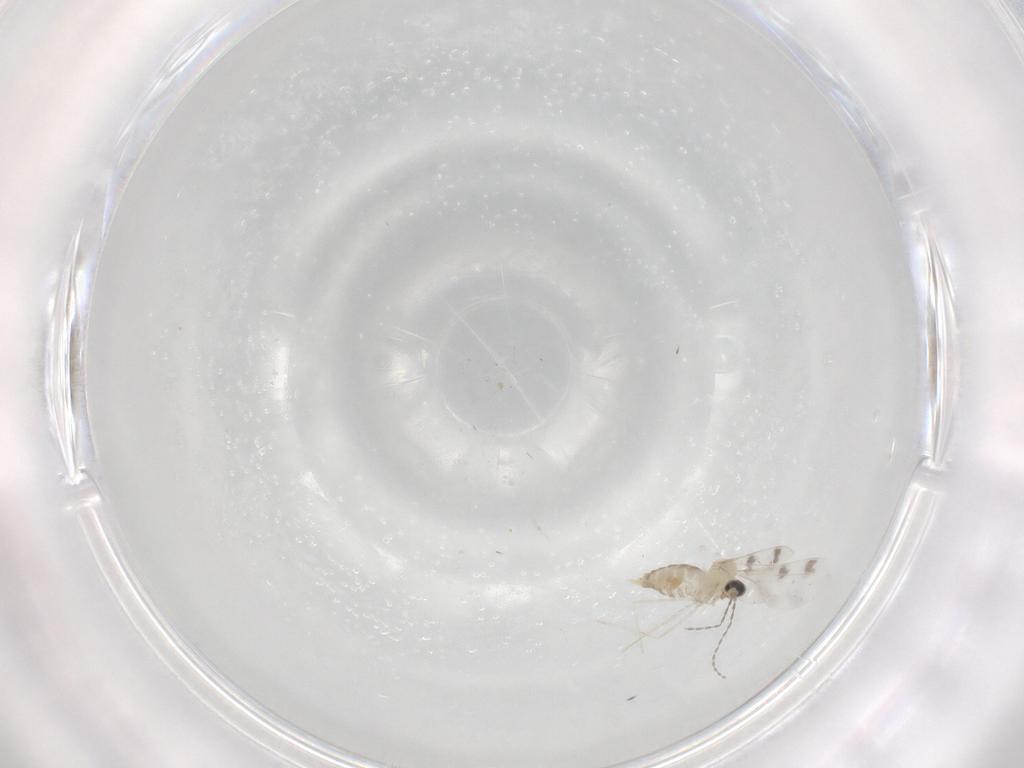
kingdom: Animalia
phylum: Arthropoda
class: Insecta
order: Diptera
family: Cecidomyiidae
